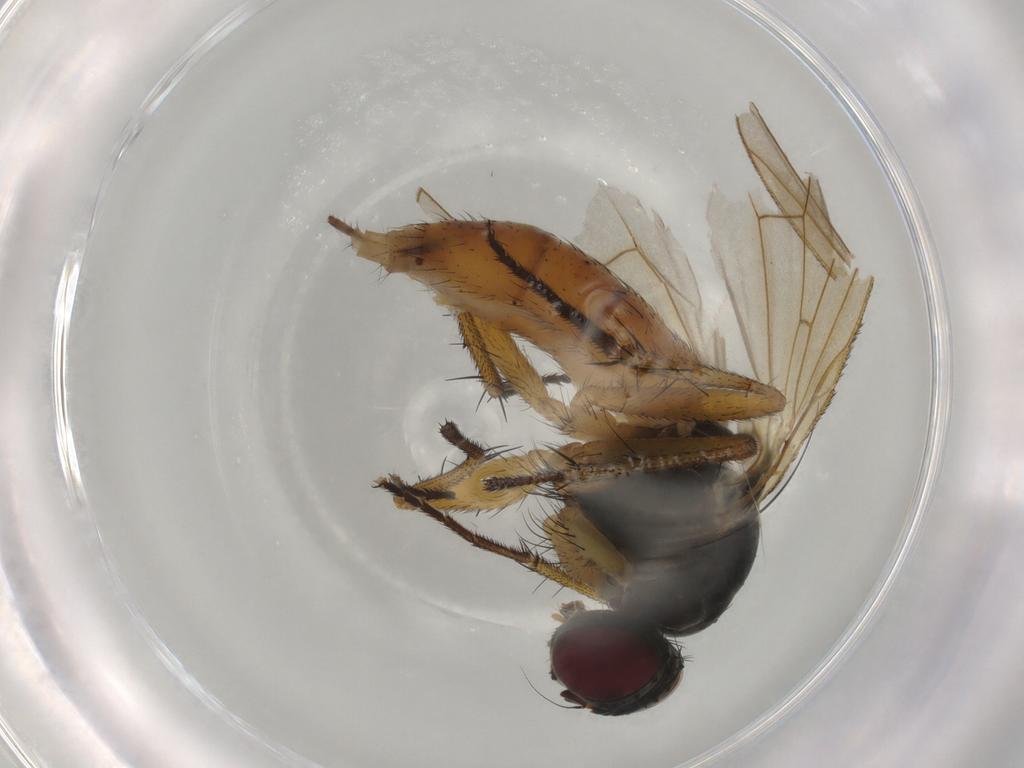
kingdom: Animalia
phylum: Arthropoda
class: Insecta
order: Diptera
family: Muscidae
